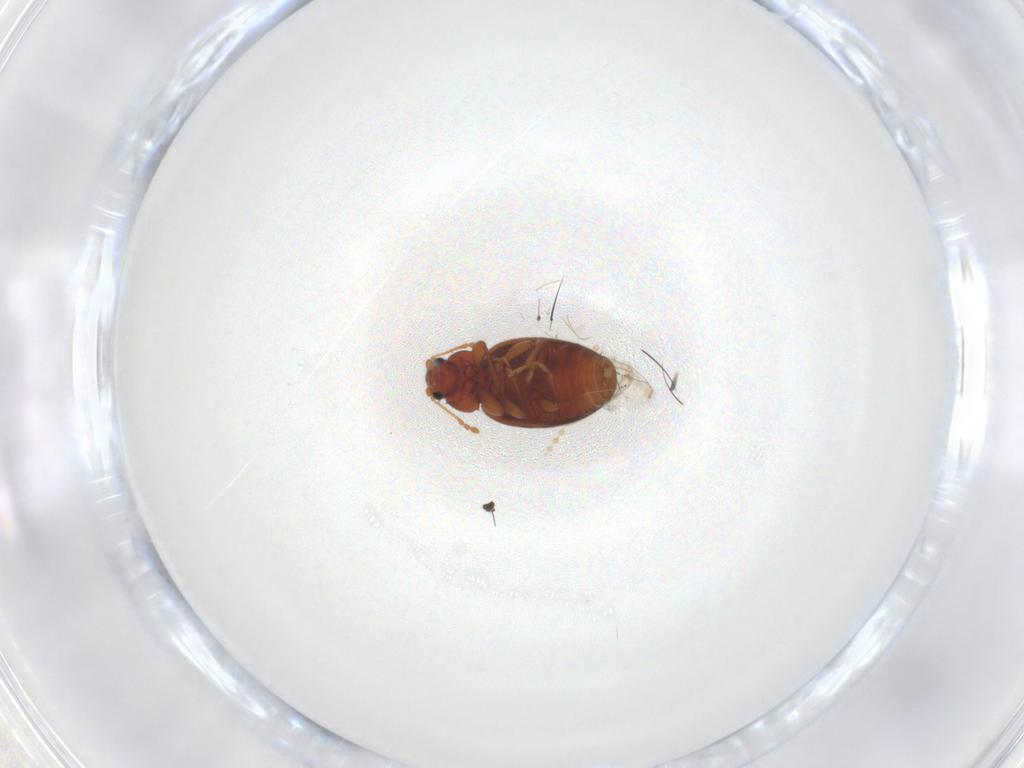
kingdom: Animalia
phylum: Arthropoda
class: Insecta
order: Coleoptera
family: Latridiidae
